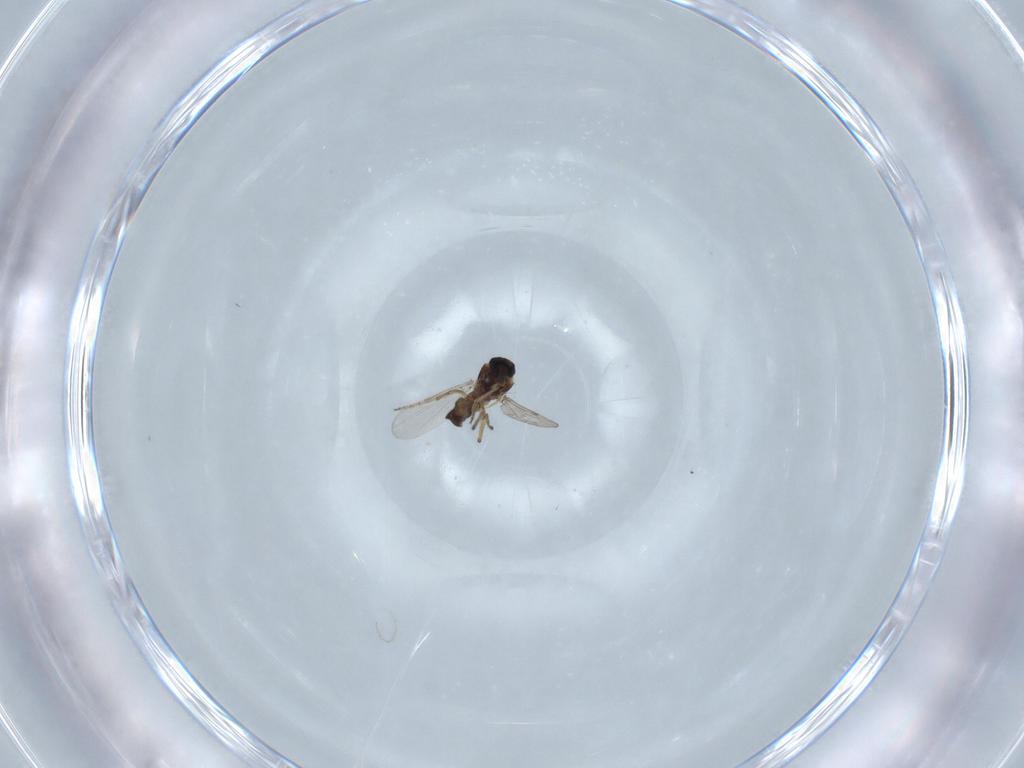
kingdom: Animalia
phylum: Arthropoda
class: Insecta
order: Diptera
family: Ceratopogonidae
